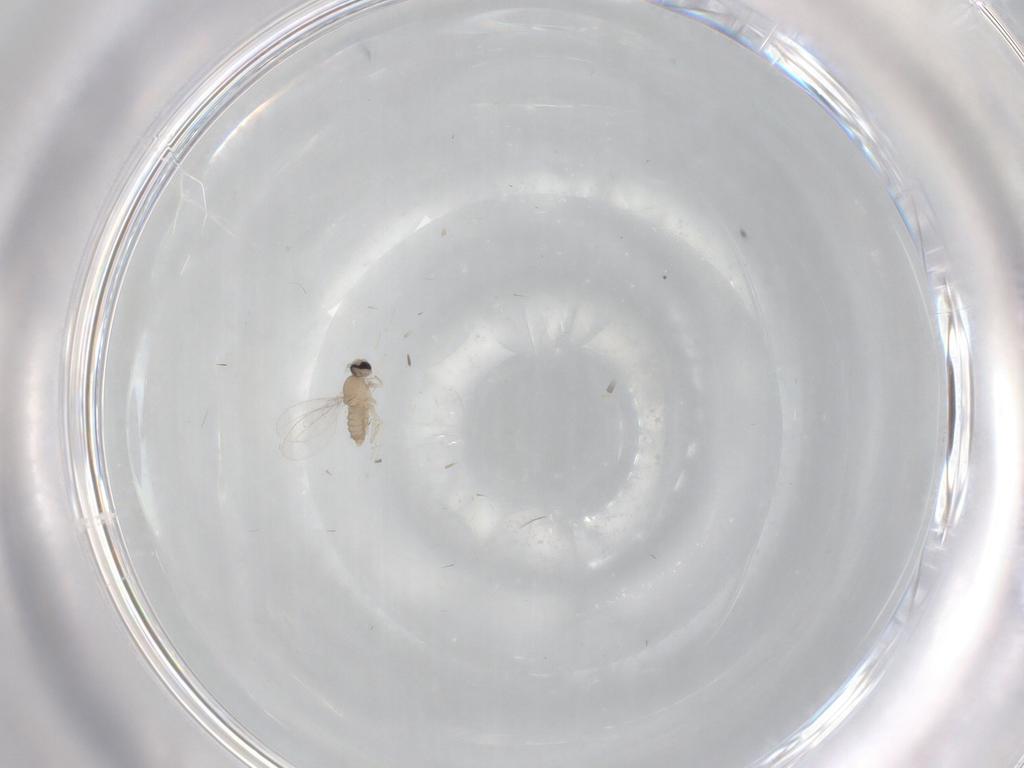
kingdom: Animalia
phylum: Arthropoda
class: Insecta
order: Diptera
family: Cecidomyiidae
